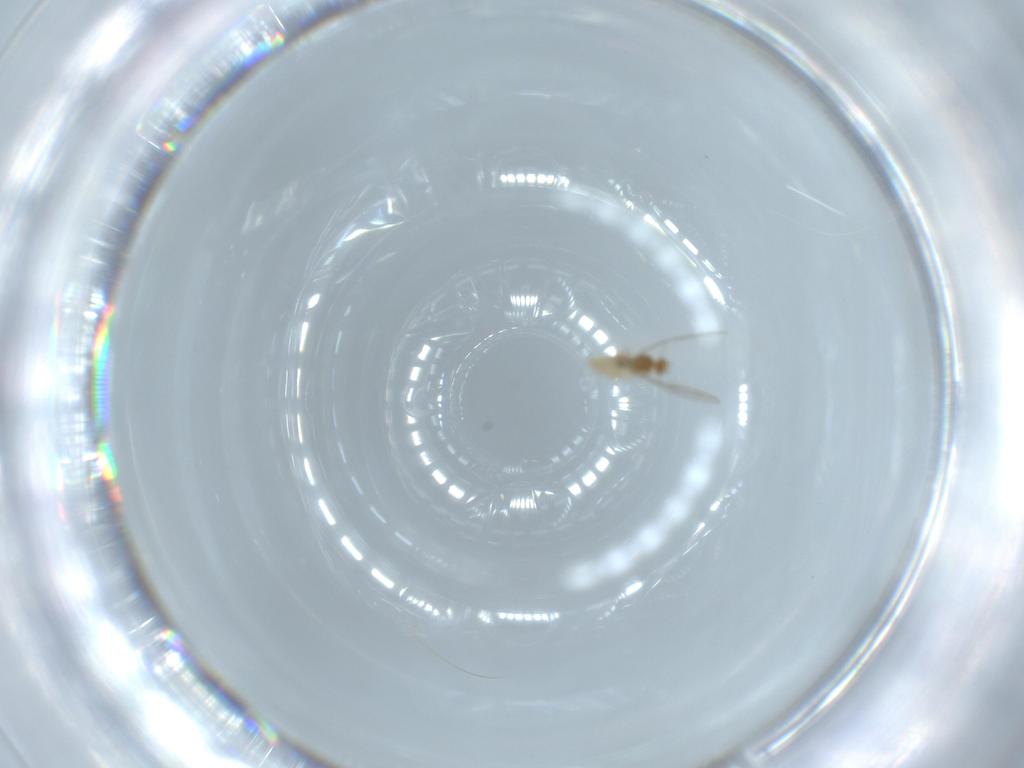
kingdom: Animalia
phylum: Arthropoda
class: Insecta
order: Diptera
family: Cecidomyiidae
